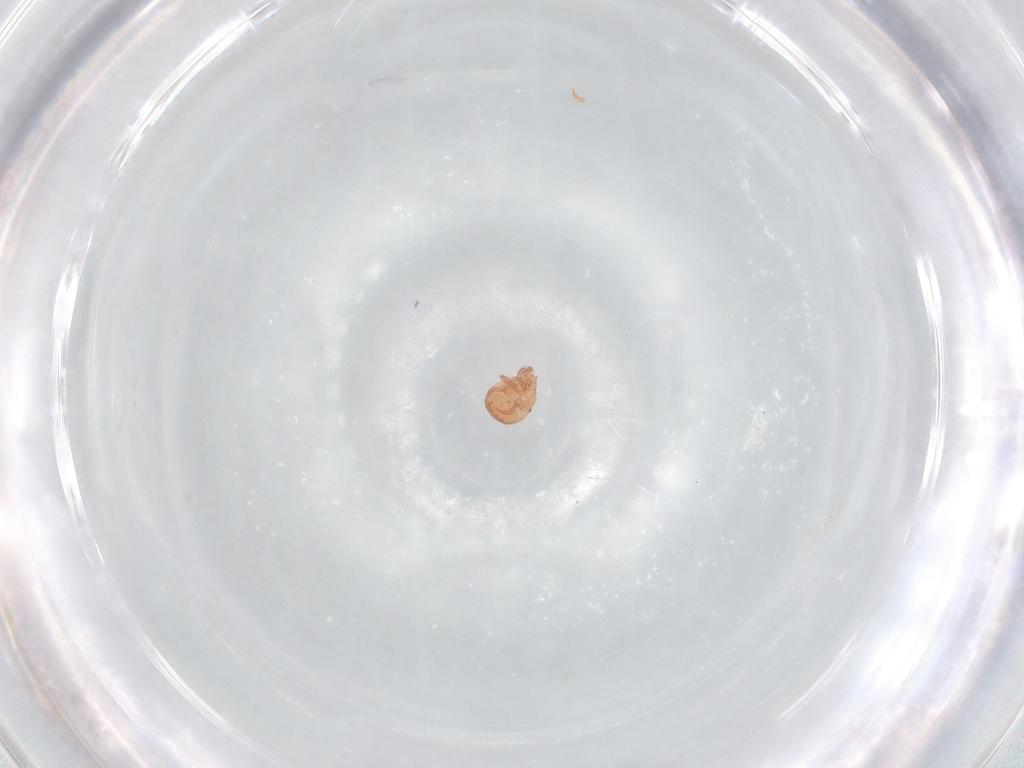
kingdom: Animalia
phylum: Arthropoda
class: Arachnida
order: Mesostigmata
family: Zerconidae
